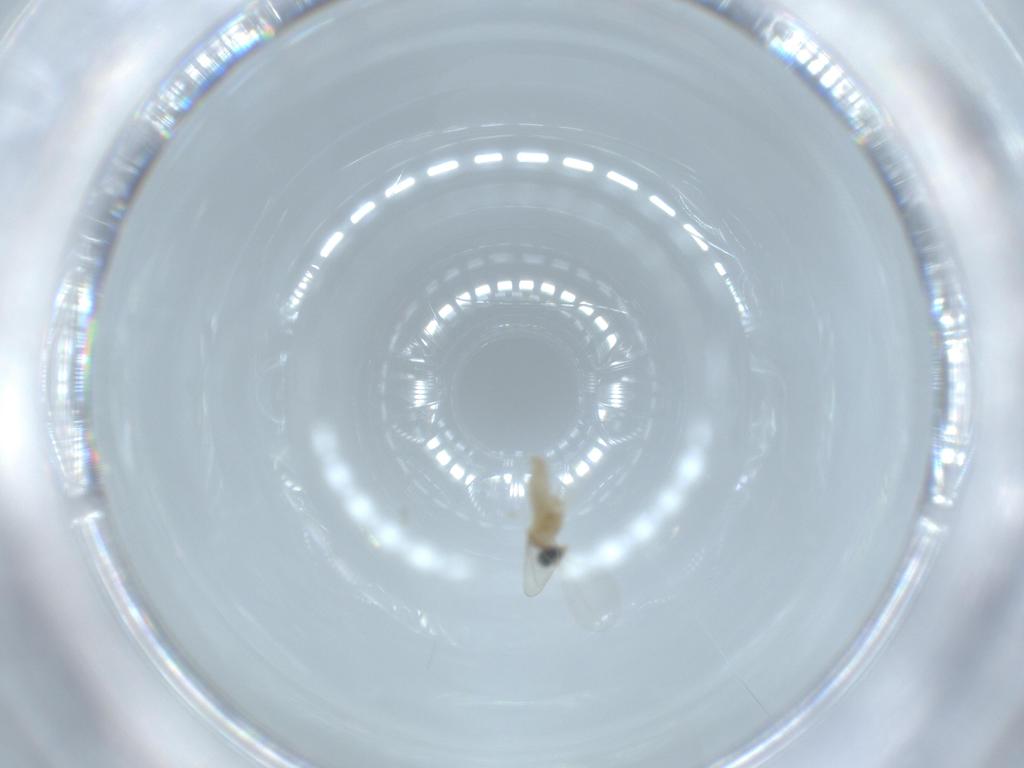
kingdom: Animalia
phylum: Arthropoda
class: Insecta
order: Diptera
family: Cecidomyiidae
